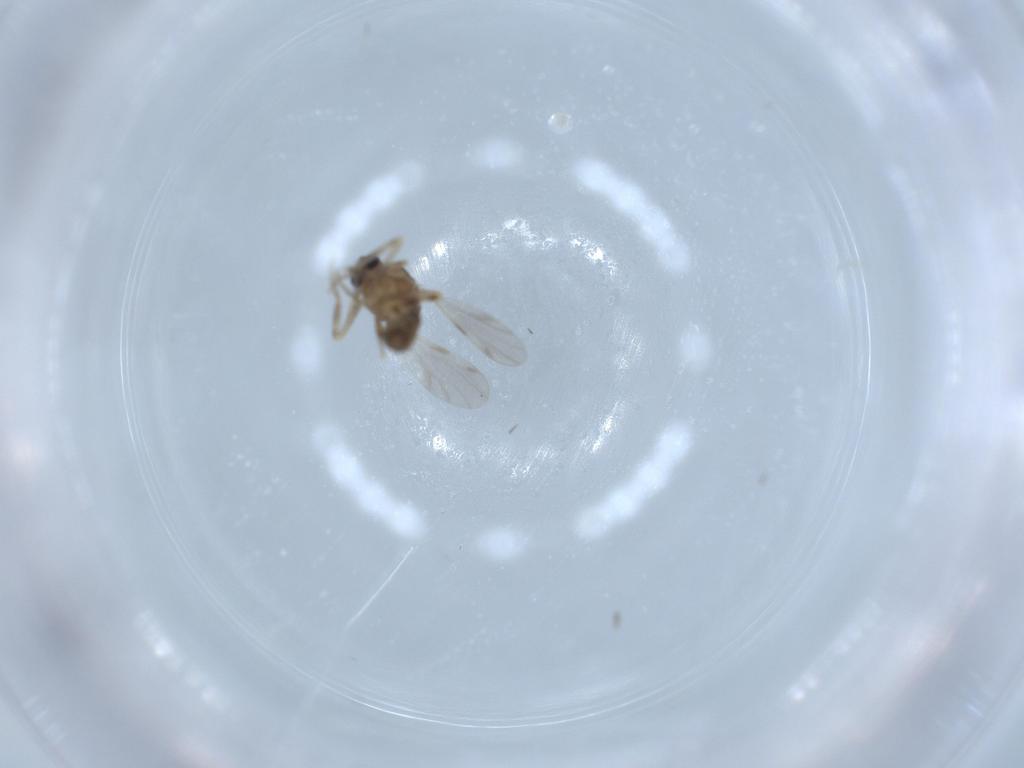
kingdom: Animalia
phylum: Arthropoda
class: Insecta
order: Diptera
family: Ceratopogonidae
